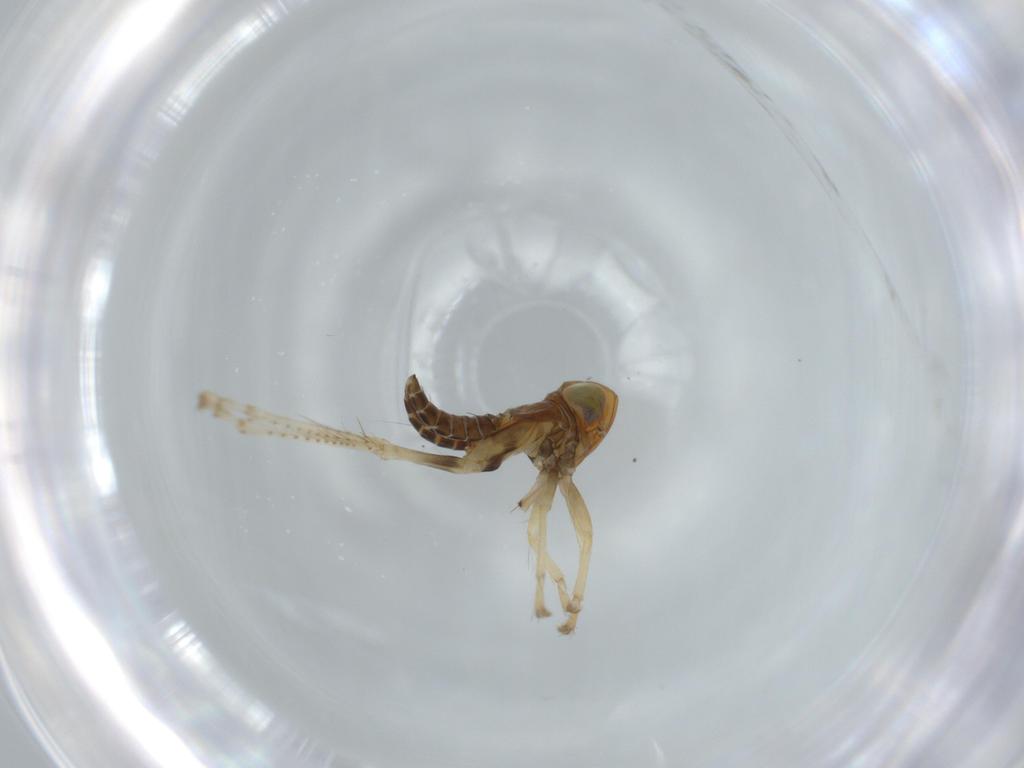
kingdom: Animalia
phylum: Arthropoda
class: Insecta
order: Hemiptera
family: Cicadellidae
